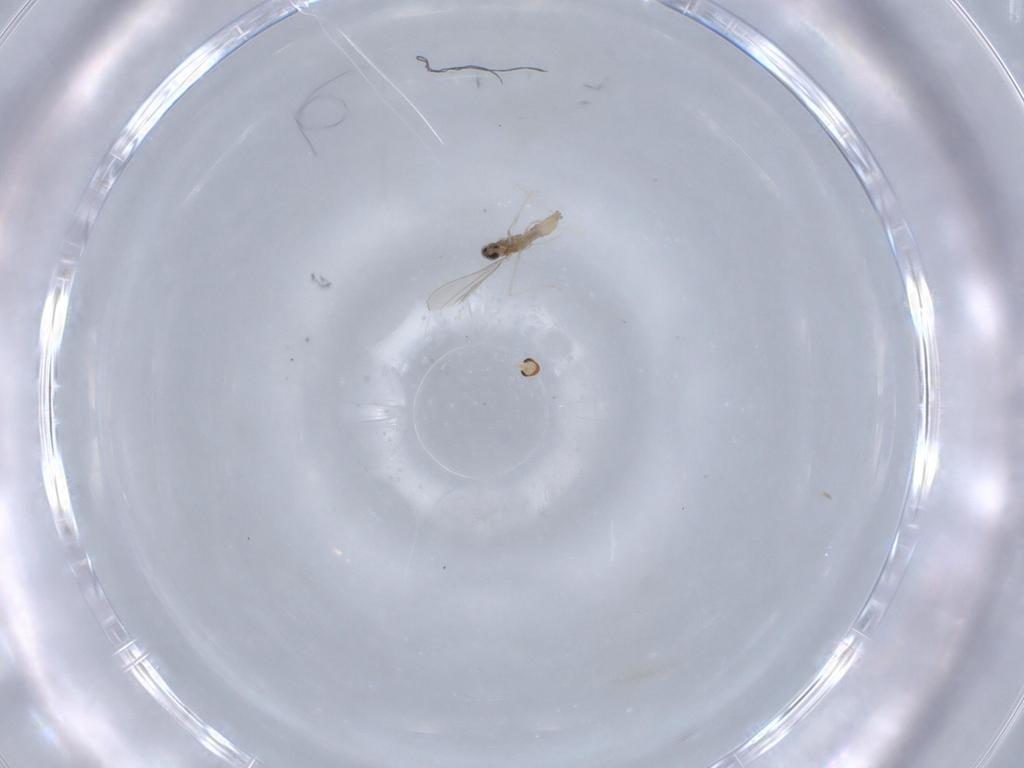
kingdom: Animalia
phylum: Arthropoda
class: Insecta
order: Diptera
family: Cecidomyiidae
